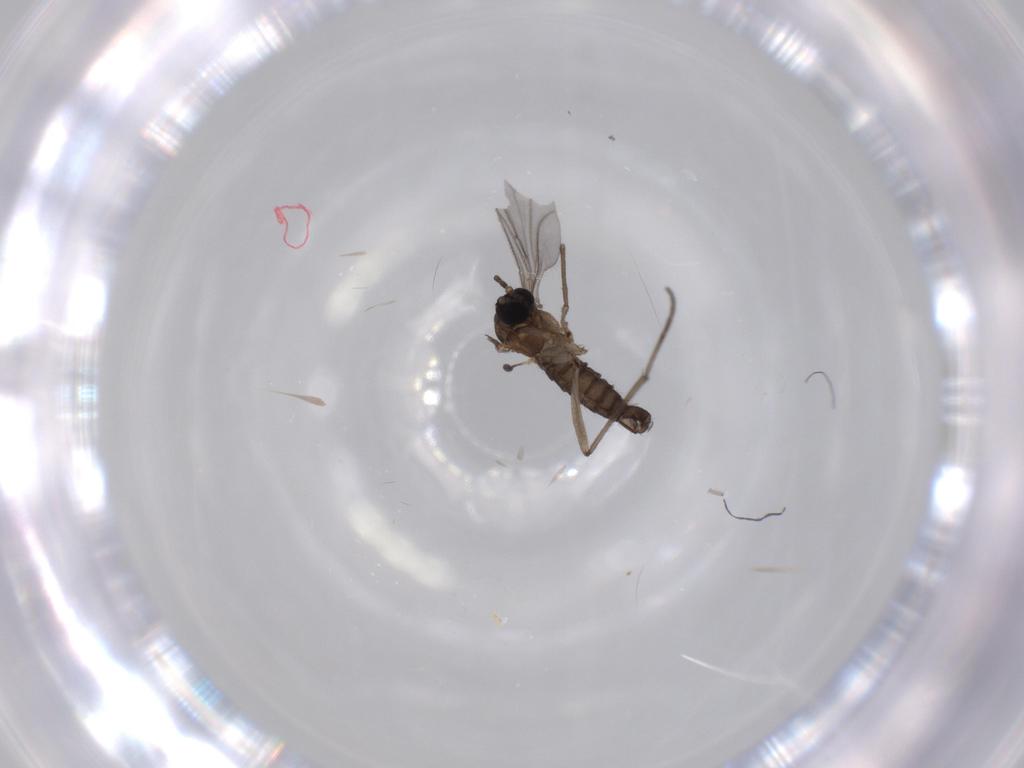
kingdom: Animalia
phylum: Arthropoda
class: Insecta
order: Diptera
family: Sciaridae
